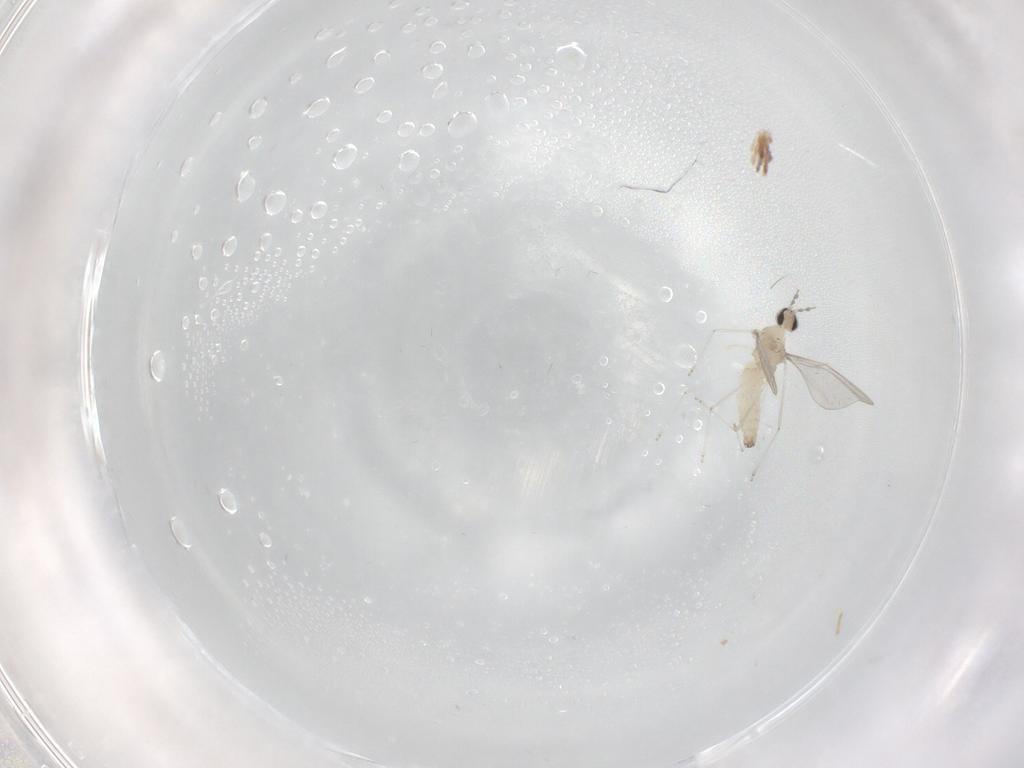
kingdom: Animalia
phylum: Arthropoda
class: Insecta
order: Diptera
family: Cecidomyiidae
